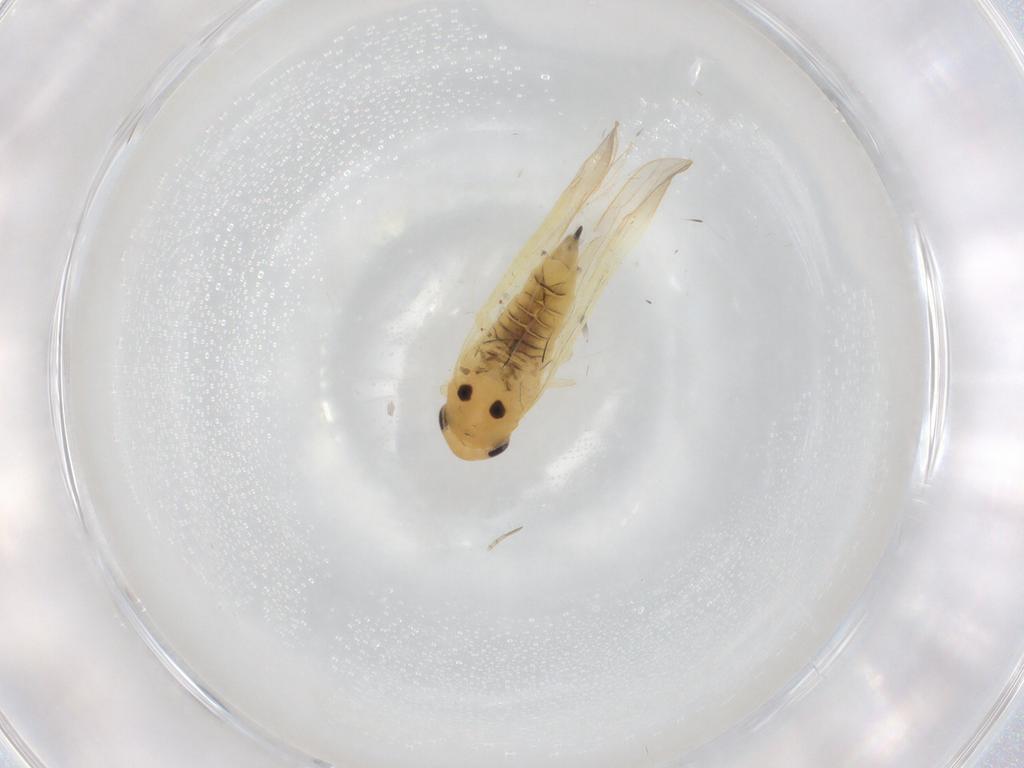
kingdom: Animalia
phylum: Arthropoda
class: Insecta
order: Hemiptera
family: Cicadellidae
